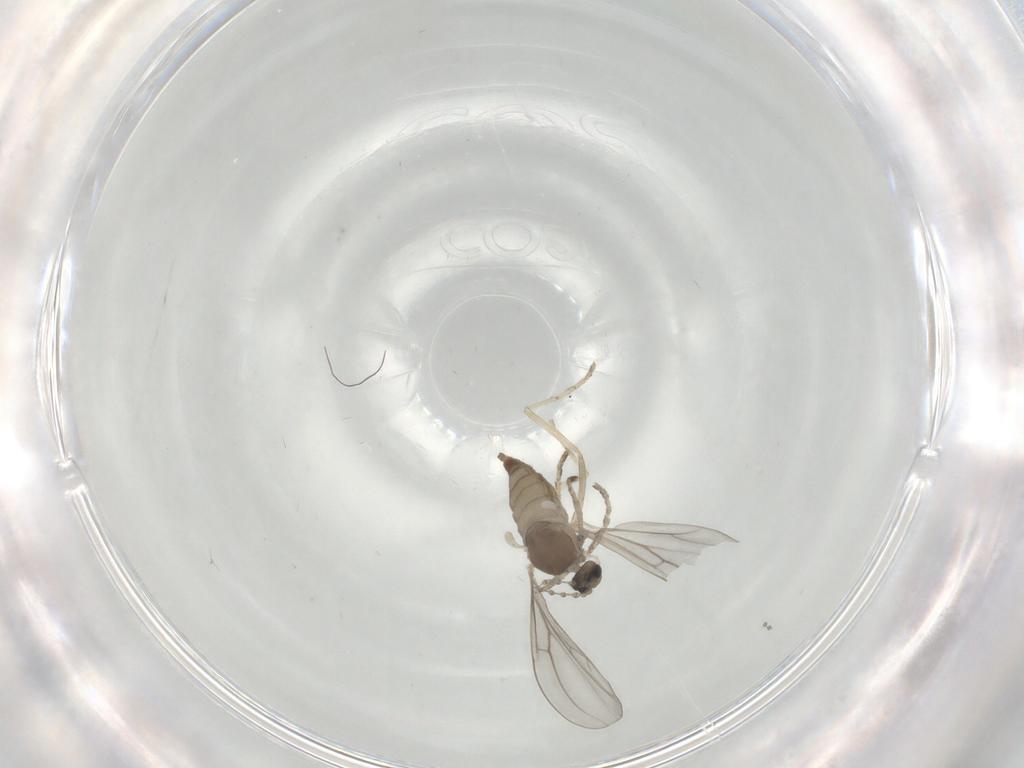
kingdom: Animalia
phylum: Arthropoda
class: Insecta
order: Diptera
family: Cecidomyiidae
